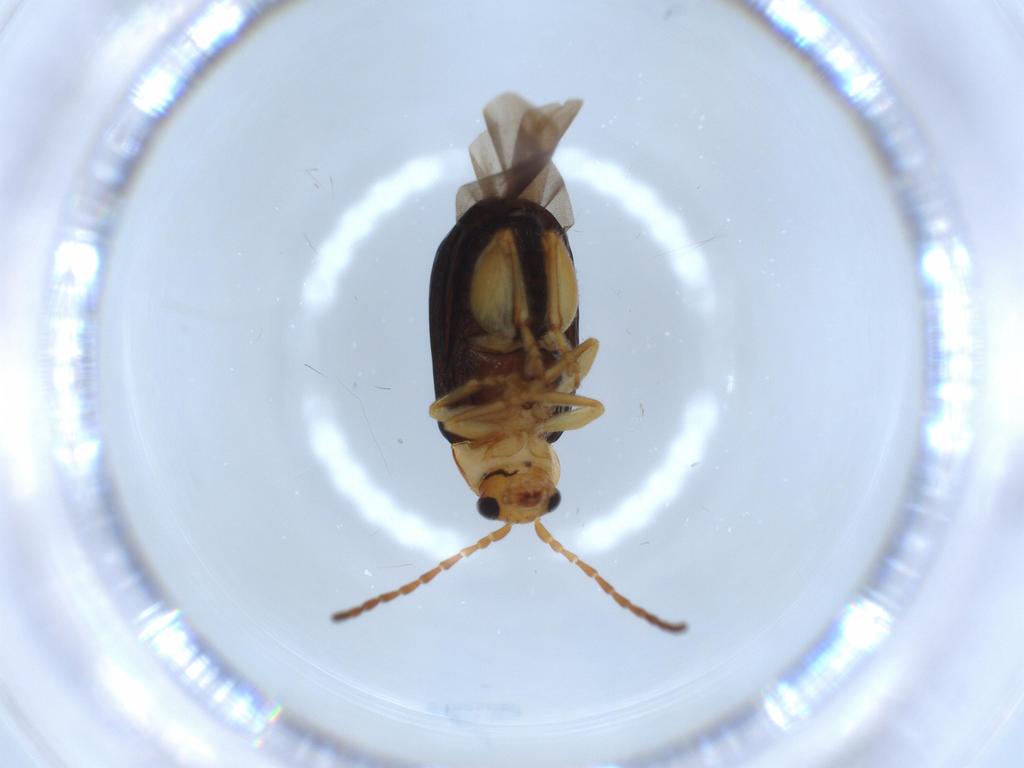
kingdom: Animalia
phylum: Arthropoda
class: Insecta
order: Coleoptera
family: Chrysomelidae
